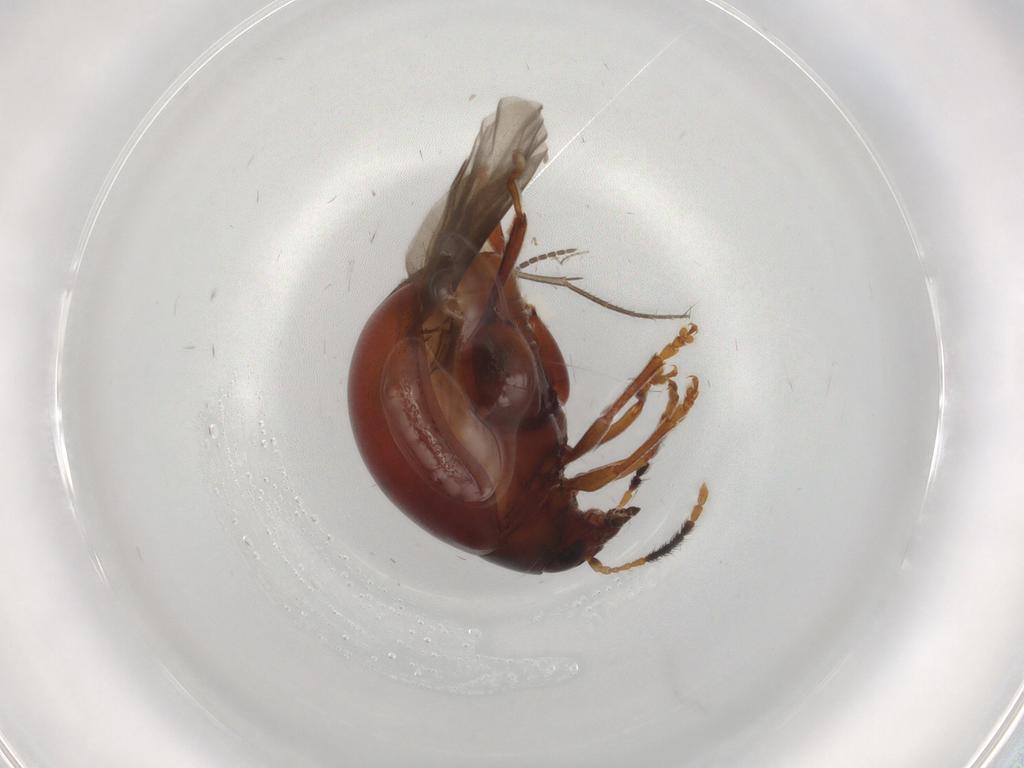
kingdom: Animalia
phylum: Arthropoda
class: Insecta
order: Coleoptera
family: Chrysomelidae
